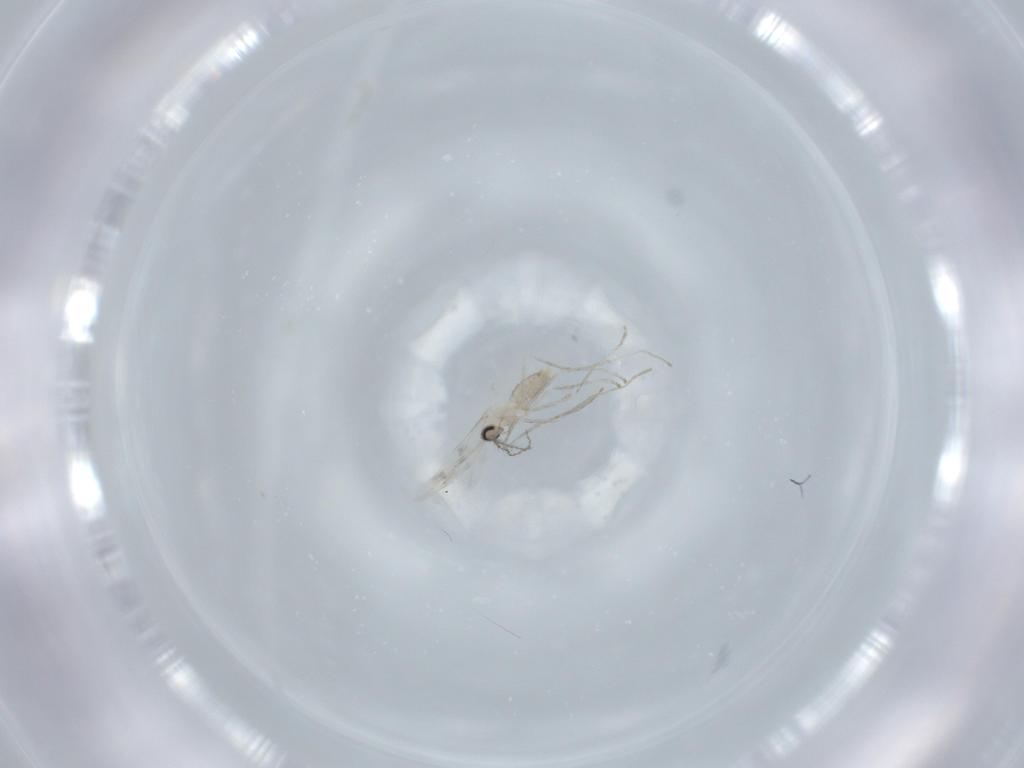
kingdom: Animalia
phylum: Arthropoda
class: Insecta
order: Diptera
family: Cecidomyiidae
